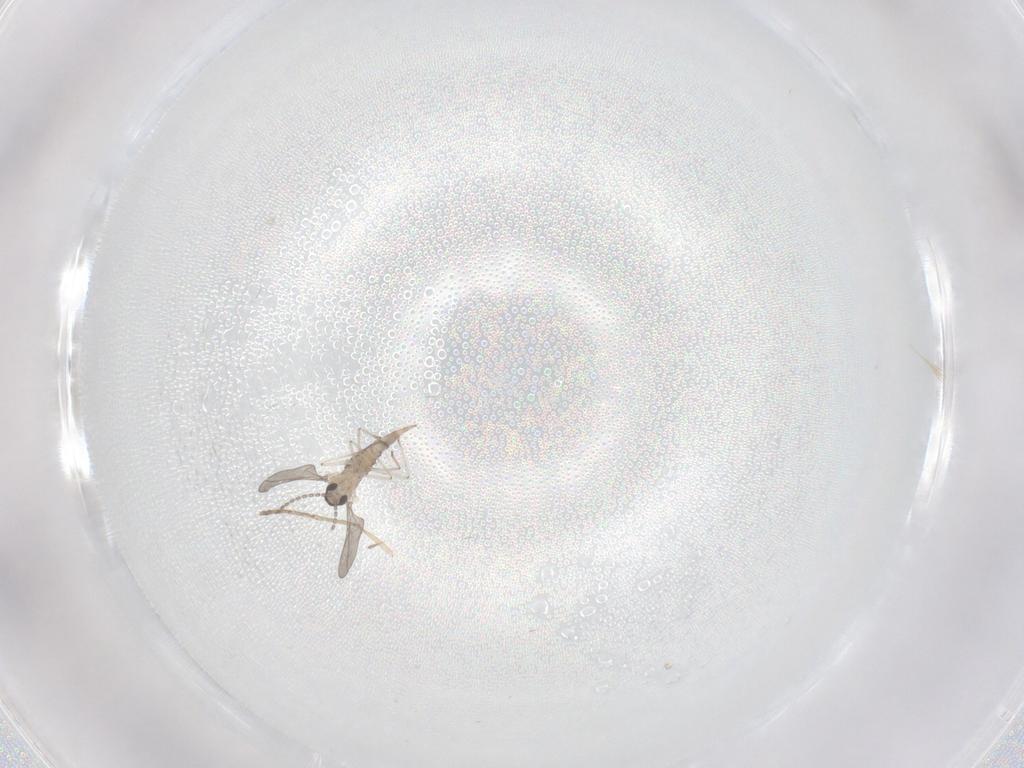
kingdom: Animalia
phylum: Arthropoda
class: Insecta
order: Diptera
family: Cecidomyiidae
